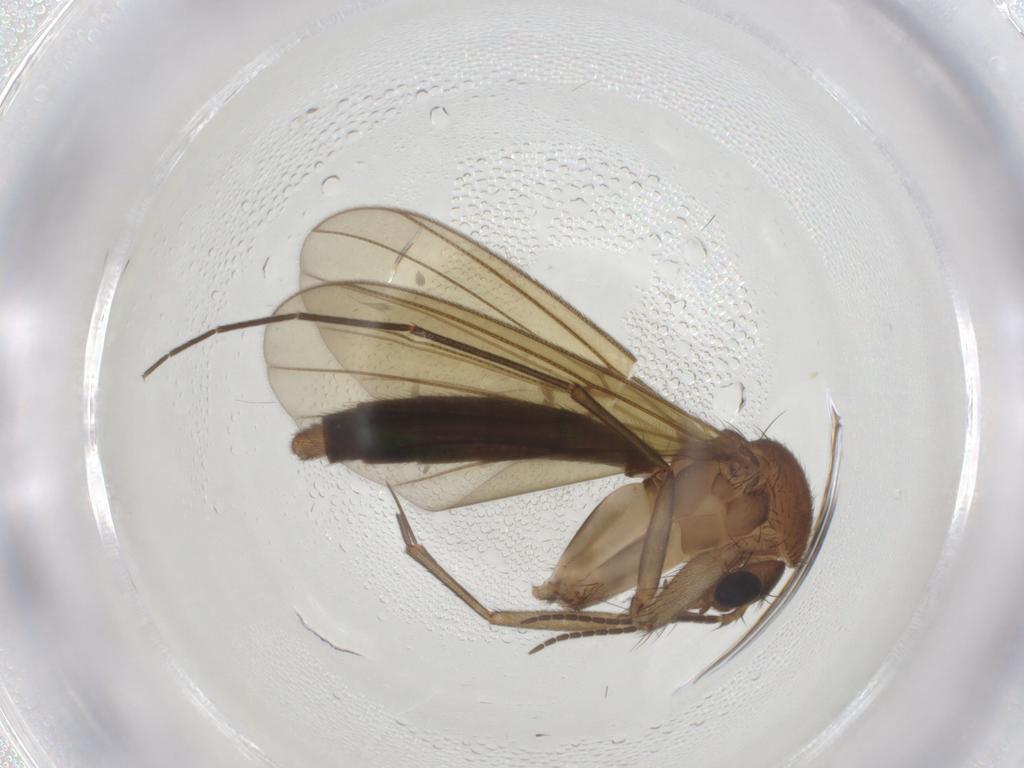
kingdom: Animalia
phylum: Arthropoda
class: Insecta
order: Diptera
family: Mycetophilidae
